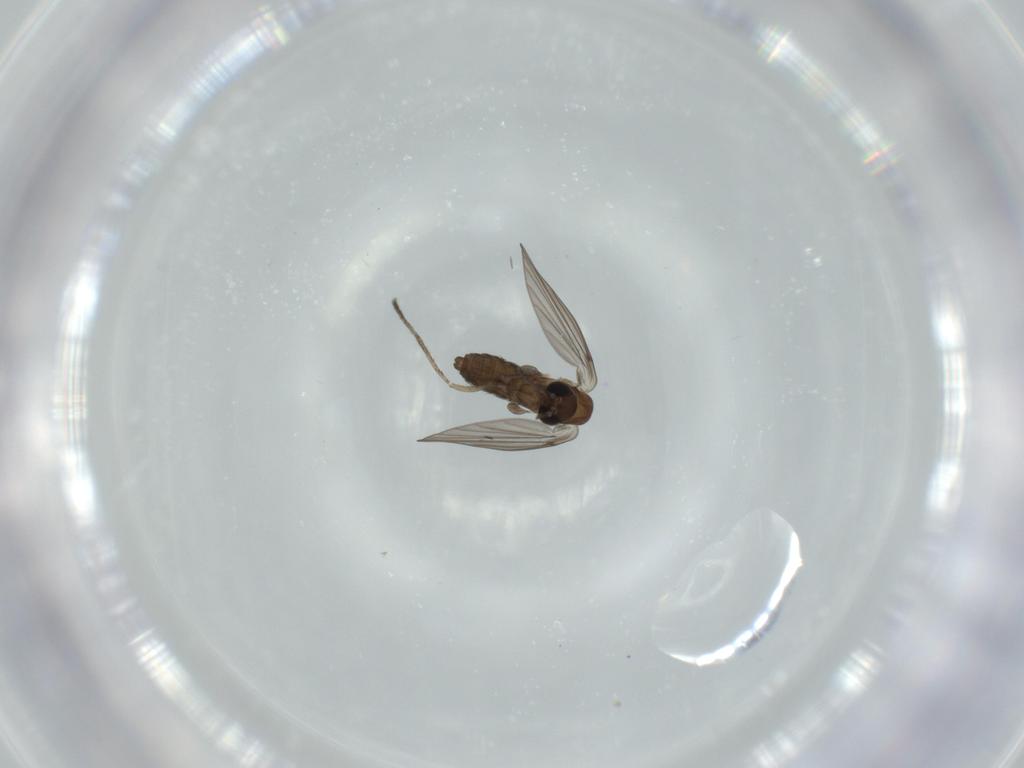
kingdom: Animalia
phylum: Arthropoda
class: Insecta
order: Diptera
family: Psychodidae
